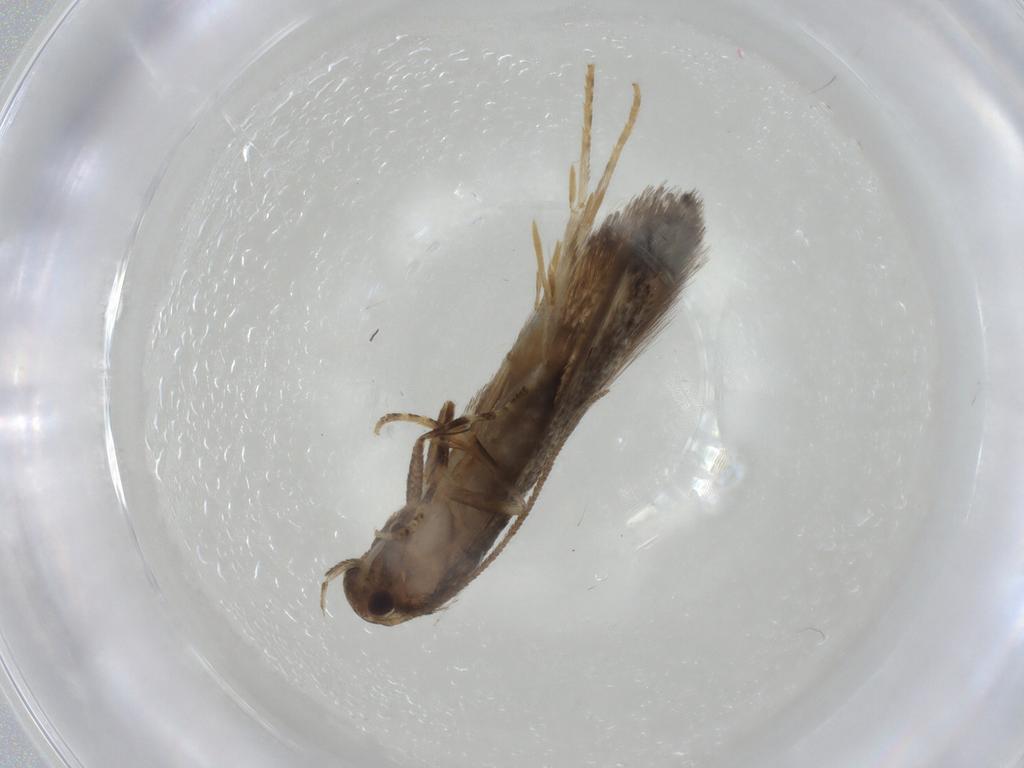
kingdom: Animalia
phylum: Arthropoda
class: Insecta
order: Lepidoptera
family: Elachistidae
